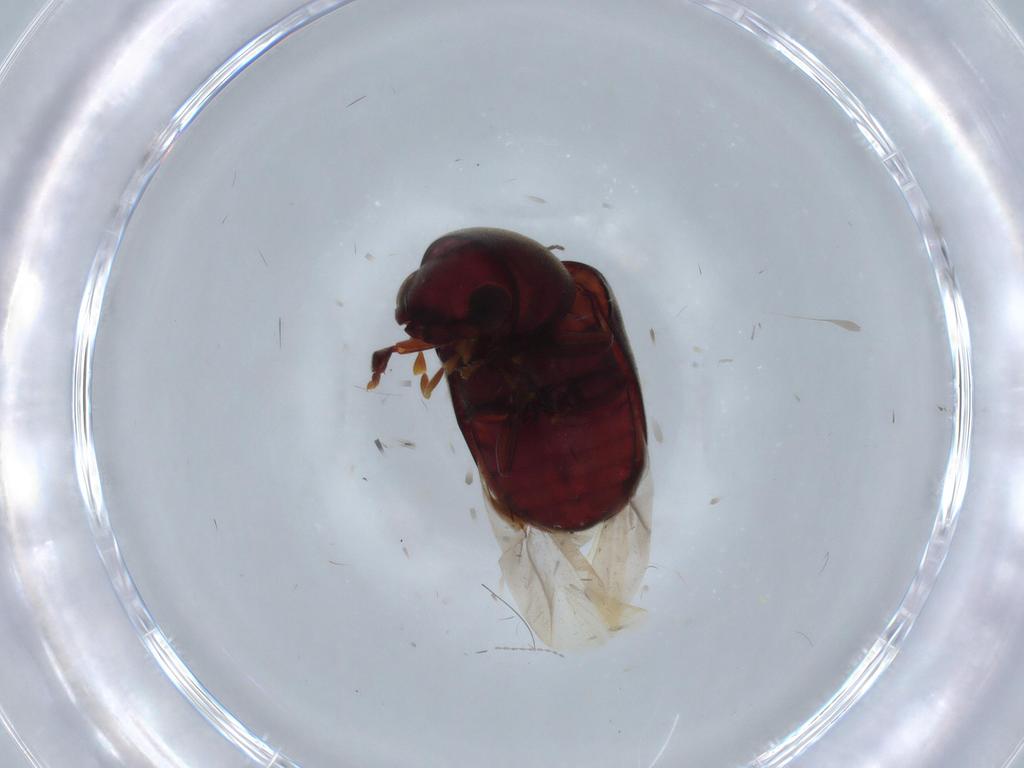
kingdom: Animalia
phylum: Arthropoda
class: Insecta
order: Coleoptera
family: Ptinidae
